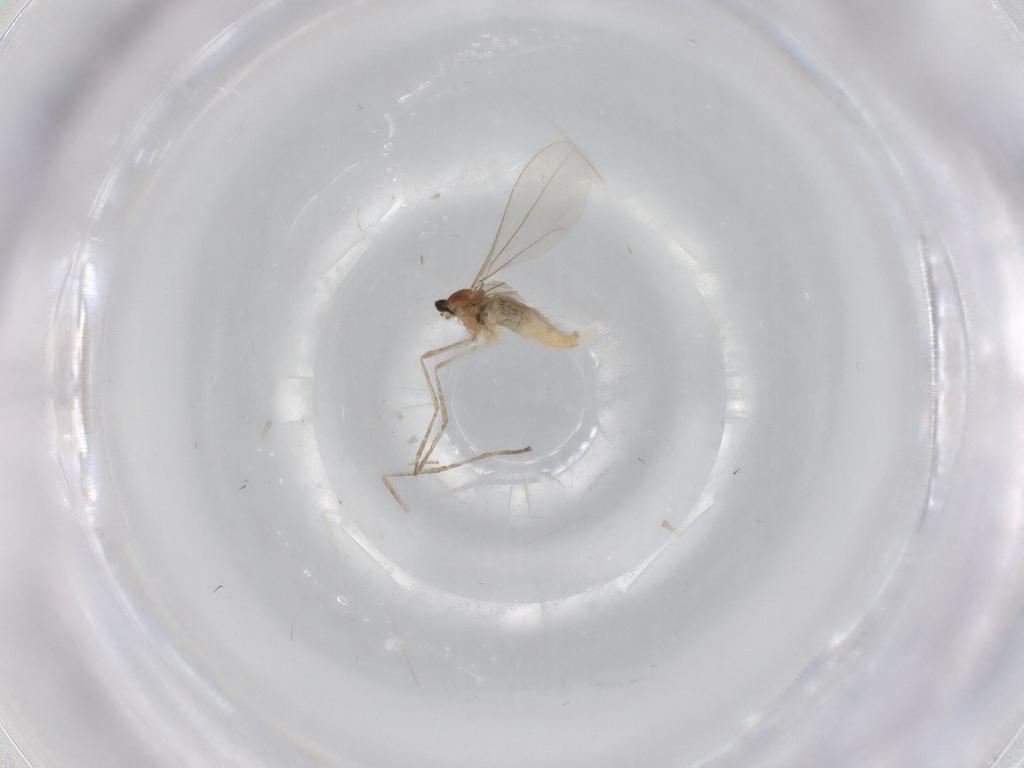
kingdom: Animalia
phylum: Arthropoda
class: Insecta
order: Diptera
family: Cecidomyiidae
